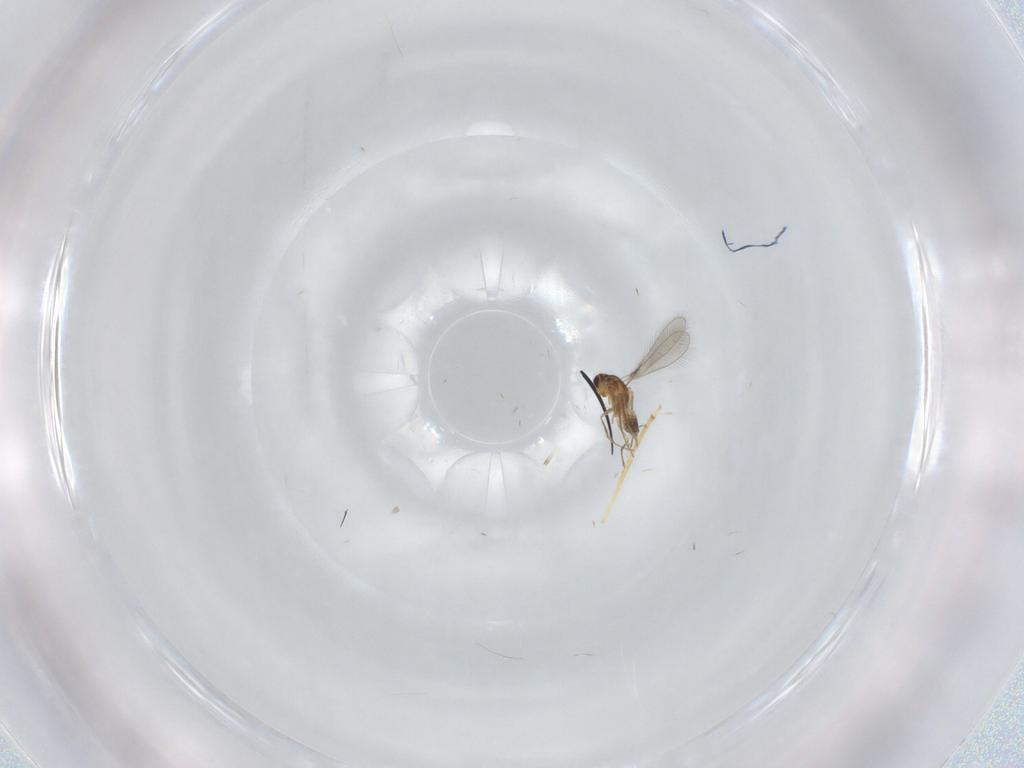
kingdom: Animalia
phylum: Arthropoda
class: Insecta
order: Hymenoptera
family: Mymaridae
